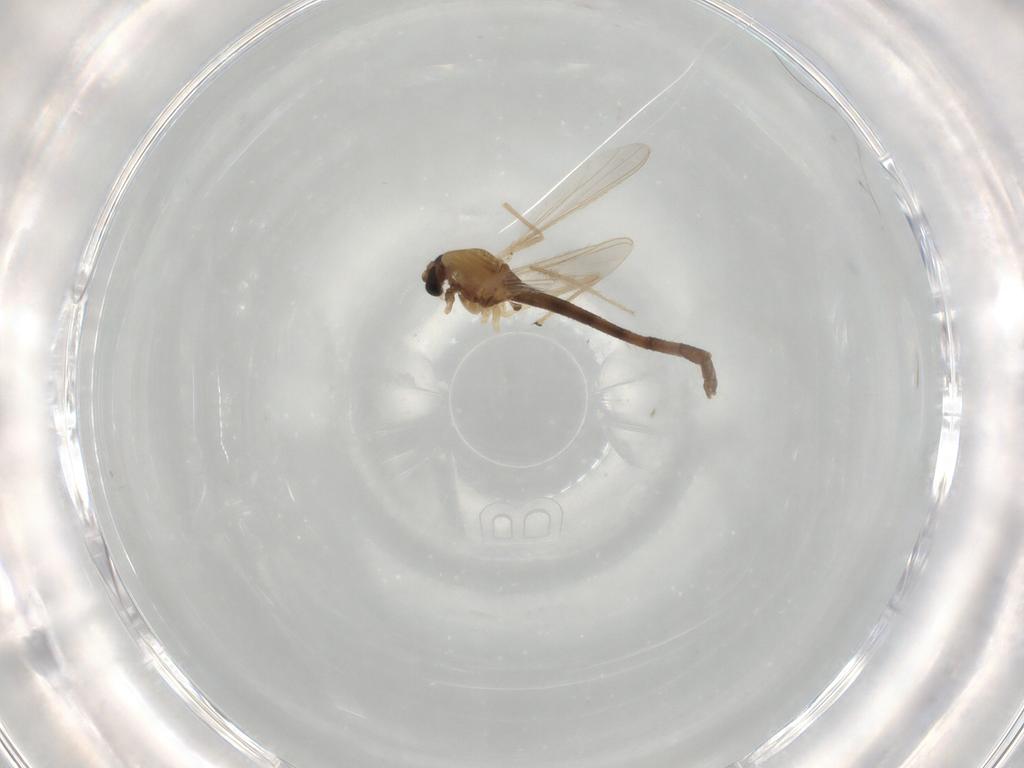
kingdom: Animalia
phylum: Arthropoda
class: Insecta
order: Diptera
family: Chironomidae
